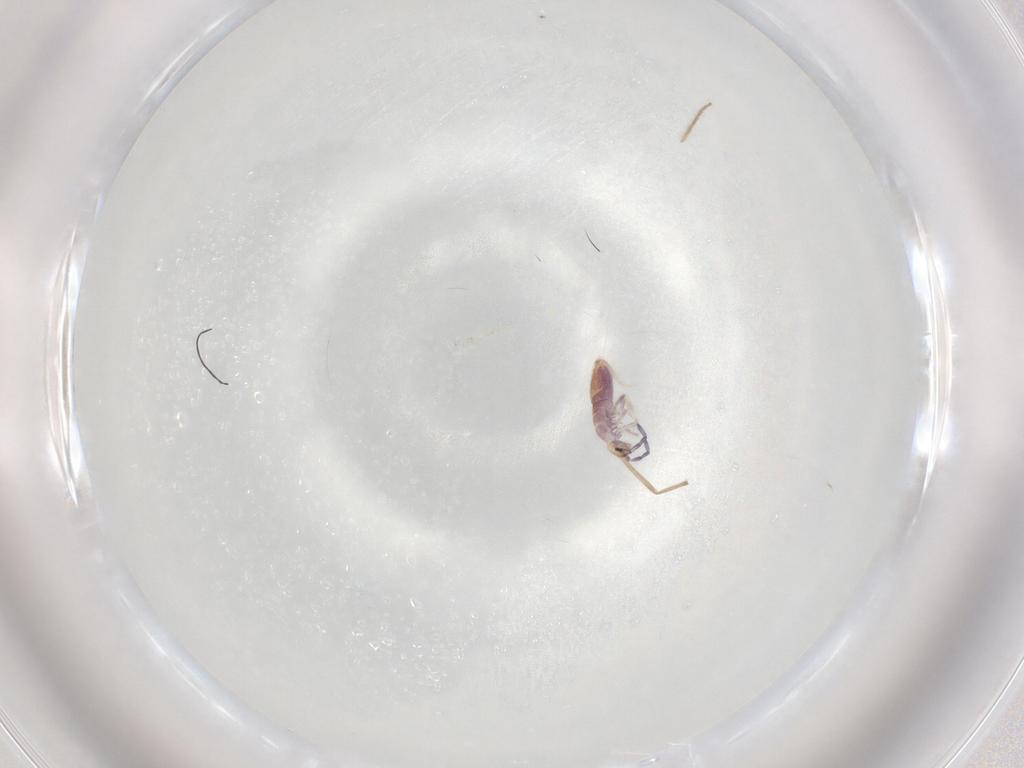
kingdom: Animalia
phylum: Arthropoda
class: Collembola
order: Entomobryomorpha
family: Entomobryidae
